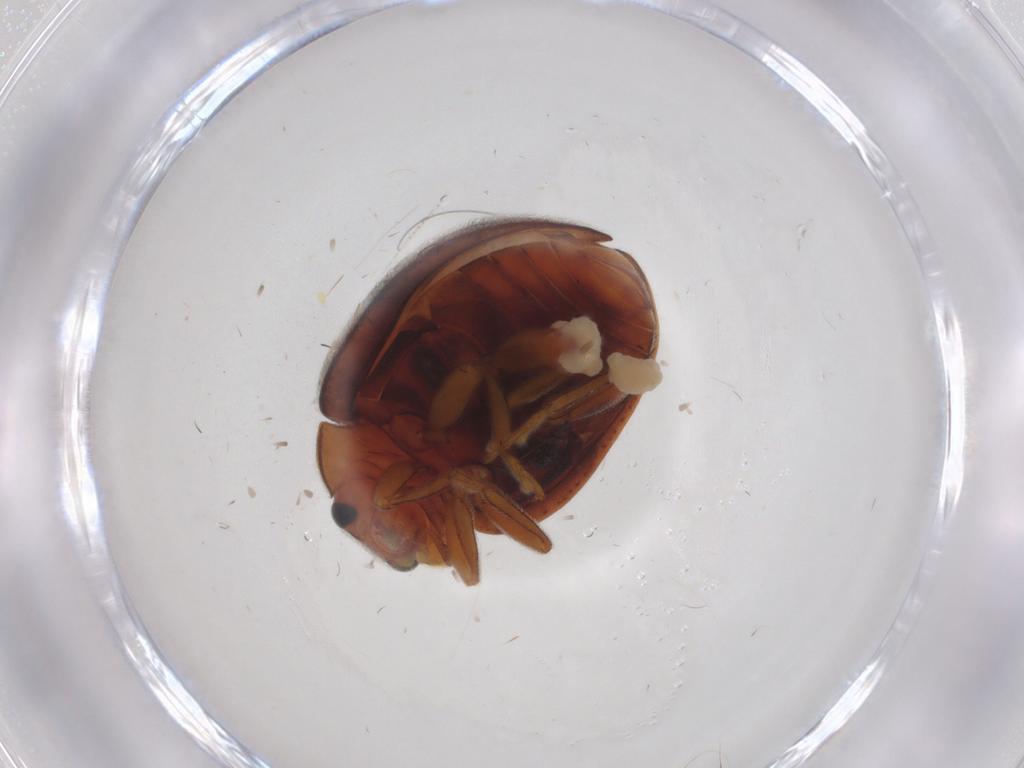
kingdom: Animalia
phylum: Arthropoda
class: Insecta
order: Coleoptera
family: Coccinellidae
